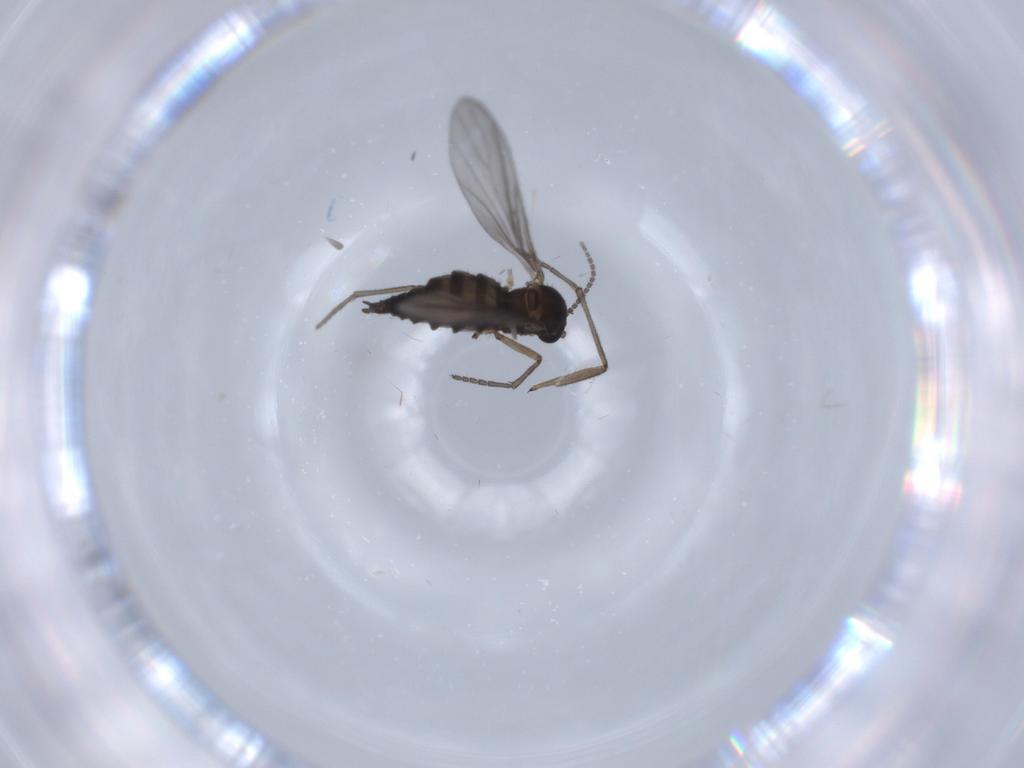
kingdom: Animalia
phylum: Arthropoda
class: Insecta
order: Diptera
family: Sciaridae
